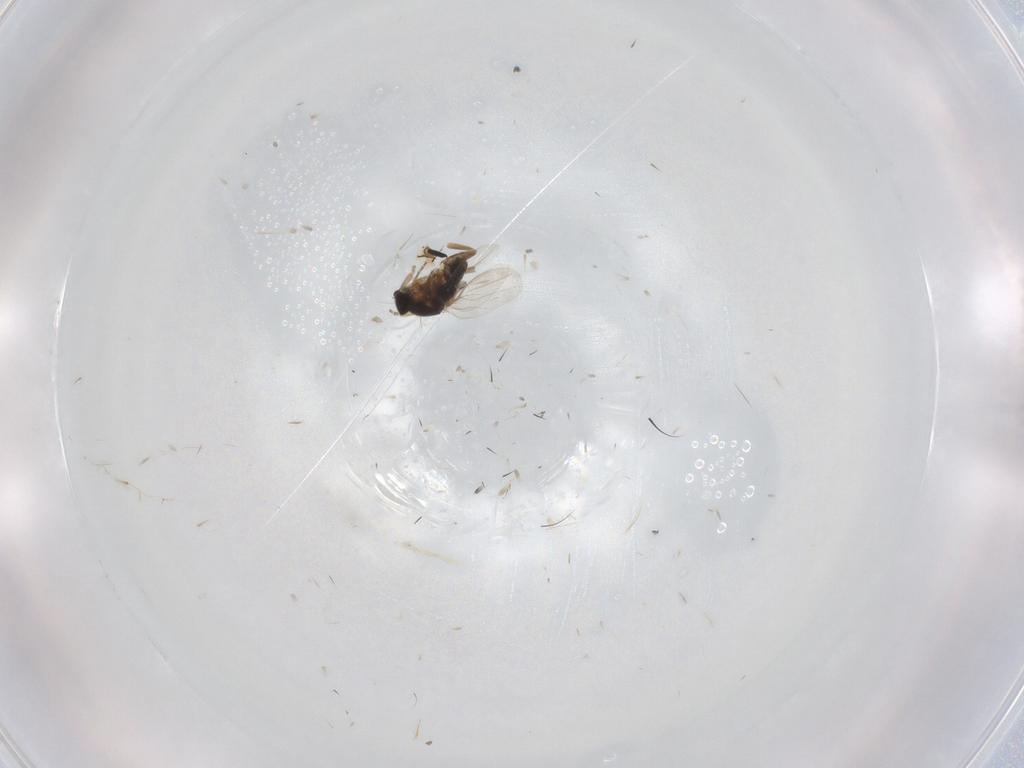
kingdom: Animalia
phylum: Arthropoda
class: Insecta
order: Diptera
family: Phoridae
